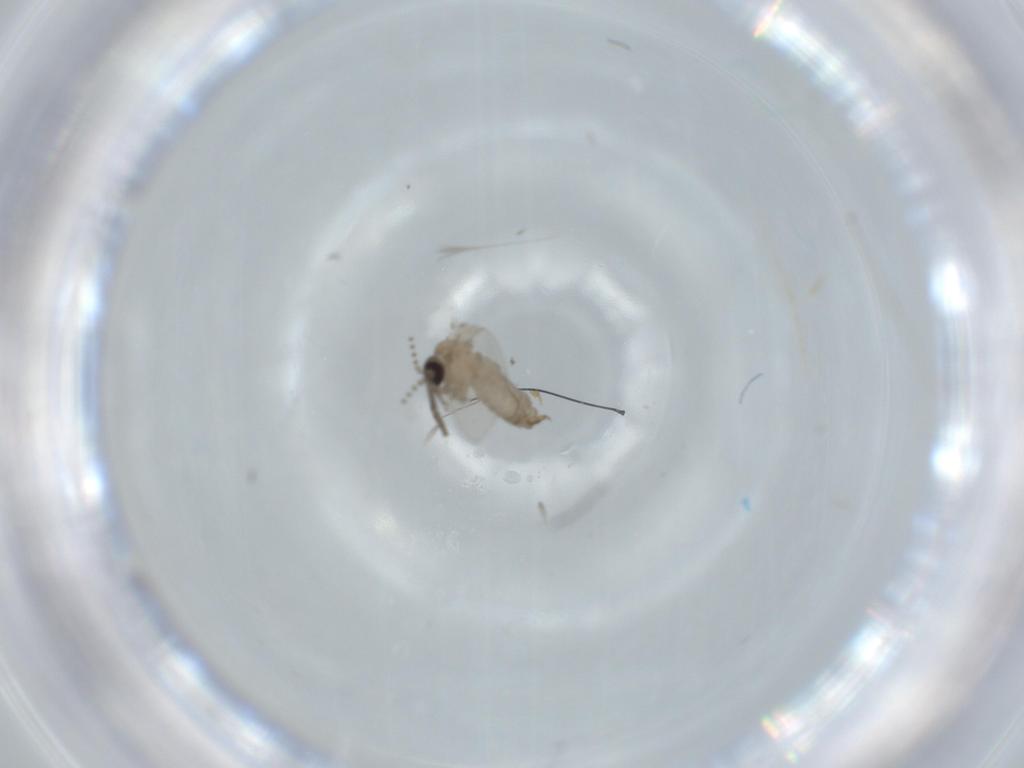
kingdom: Animalia
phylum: Arthropoda
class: Insecta
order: Diptera
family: Psychodidae
